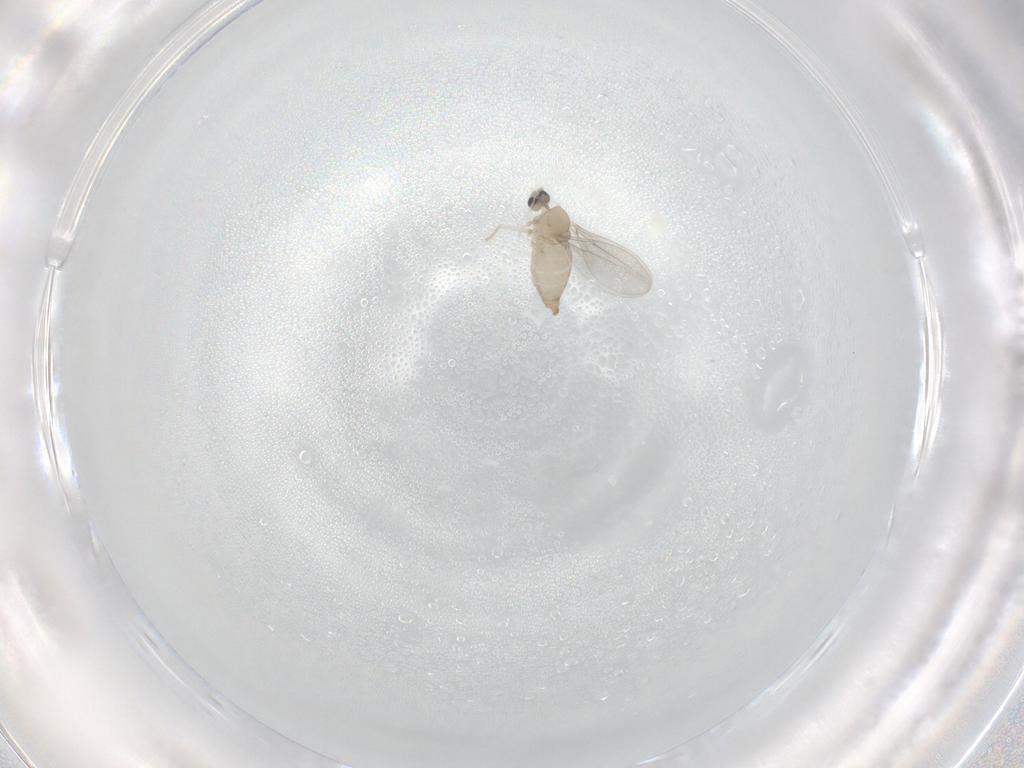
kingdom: Animalia
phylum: Arthropoda
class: Insecta
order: Diptera
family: Cecidomyiidae
